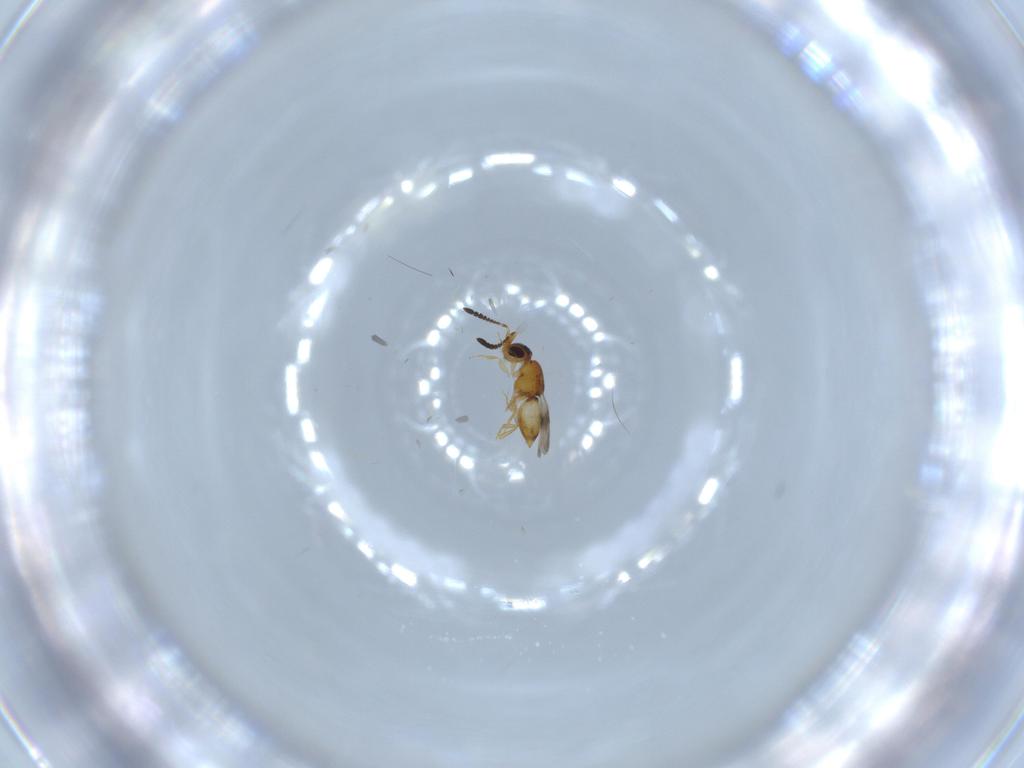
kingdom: Animalia
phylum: Arthropoda
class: Insecta
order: Hymenoptera
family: Ceraphronidae
